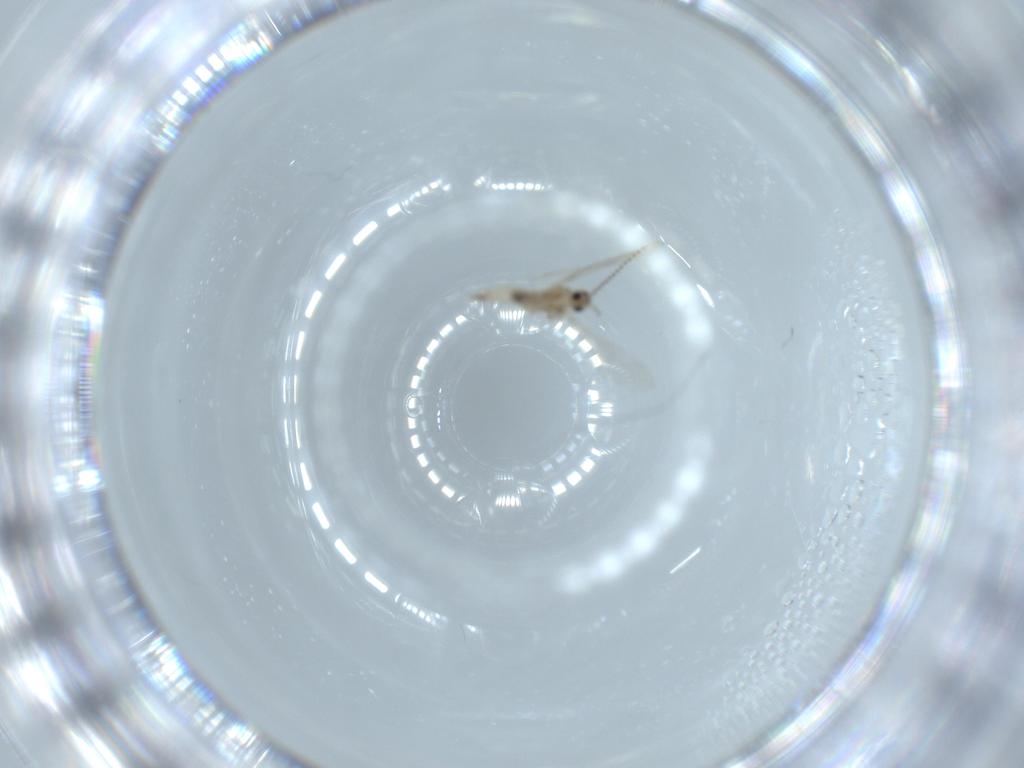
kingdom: Animalia
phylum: Arthropoda
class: Insecta
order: Diptera
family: Cecidomyiidae
